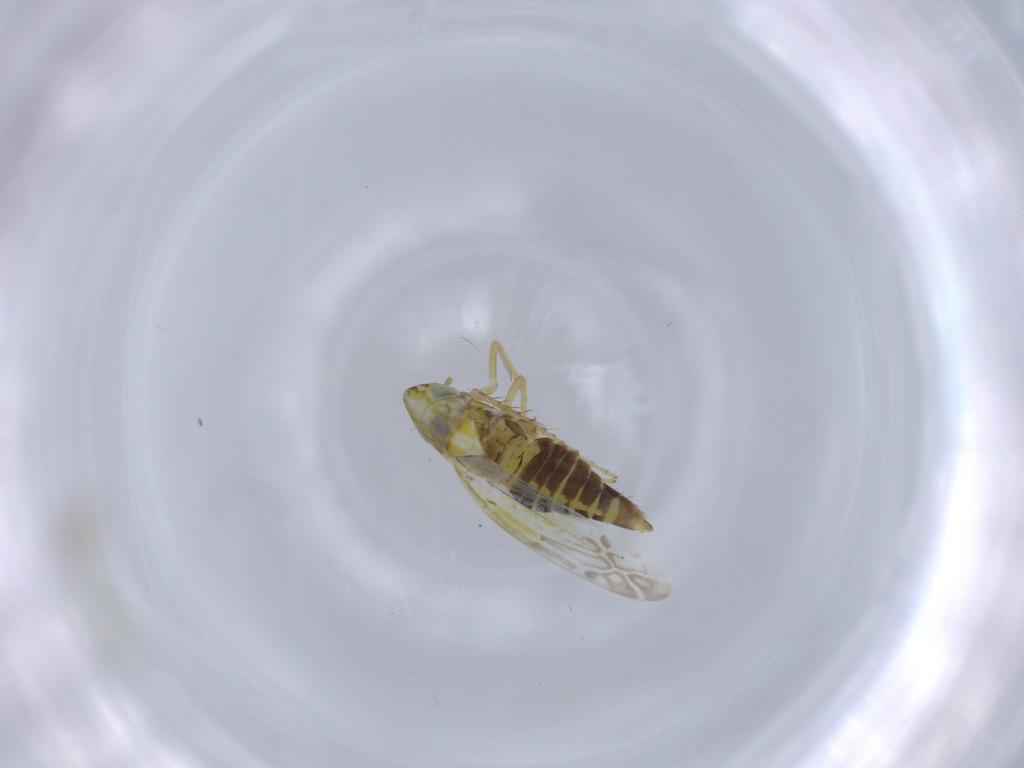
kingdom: Animalia
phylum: Arthropoda
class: Insecta
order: Hemiptera
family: Cicadellidae
